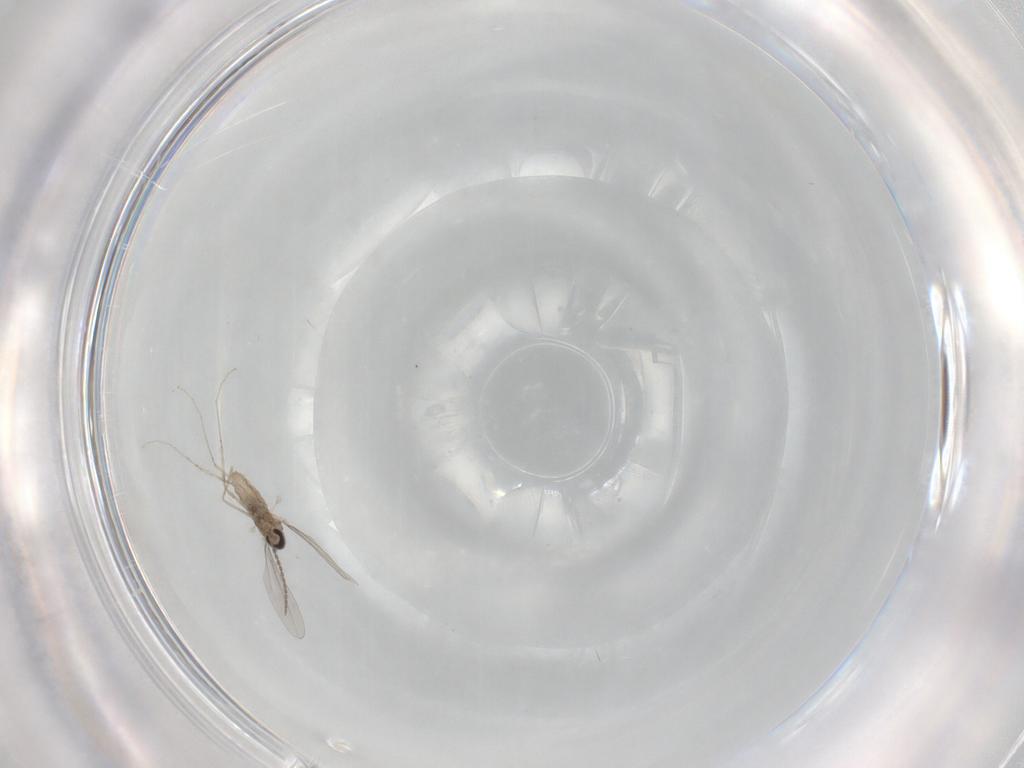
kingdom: Animalia
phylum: Arthropoda
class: Insecta
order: Diptera
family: Cecidomyiidae
